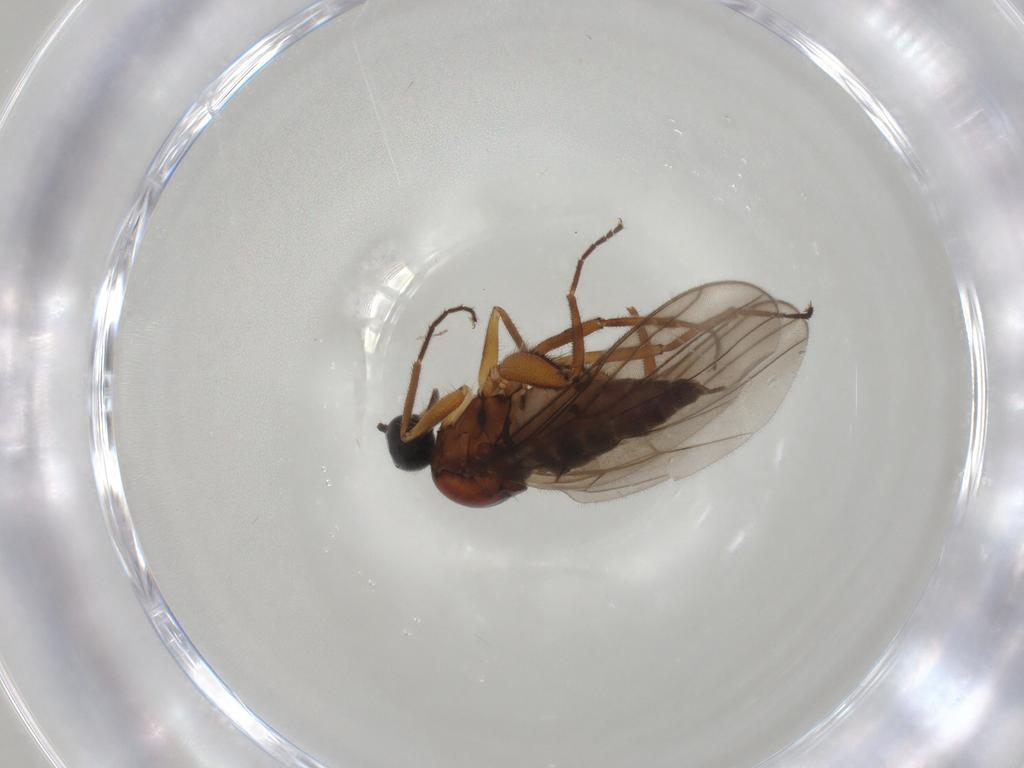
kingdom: Animalia
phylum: Arthropoda
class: Insecta
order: Diptera
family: Hybotidae
